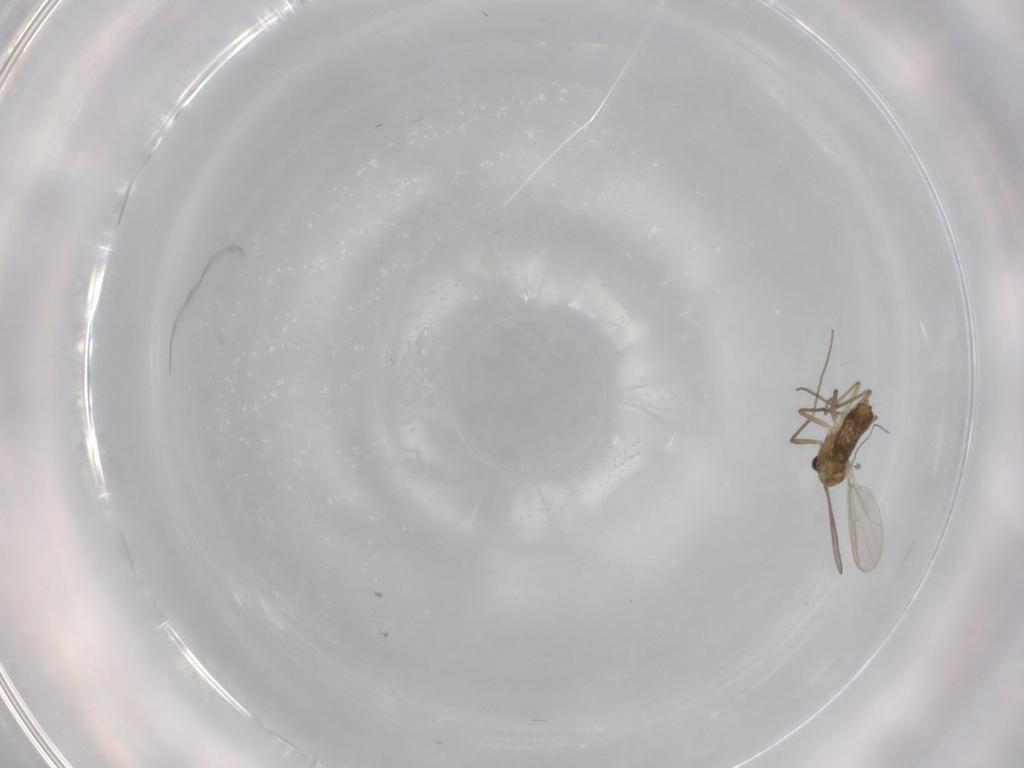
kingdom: Animalia
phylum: Arthropoda
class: Insecta
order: Diptera
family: Chironomidae
